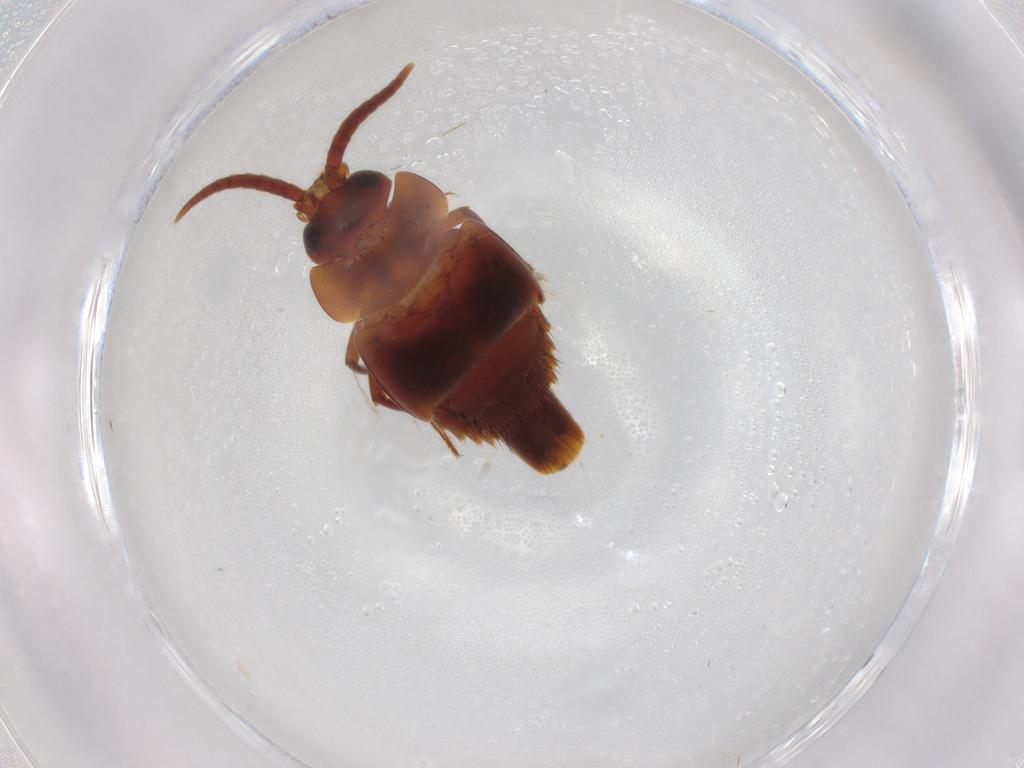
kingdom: Animalia
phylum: Arthropoda
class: Insecta
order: Coleoptera
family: Staphylinidae
